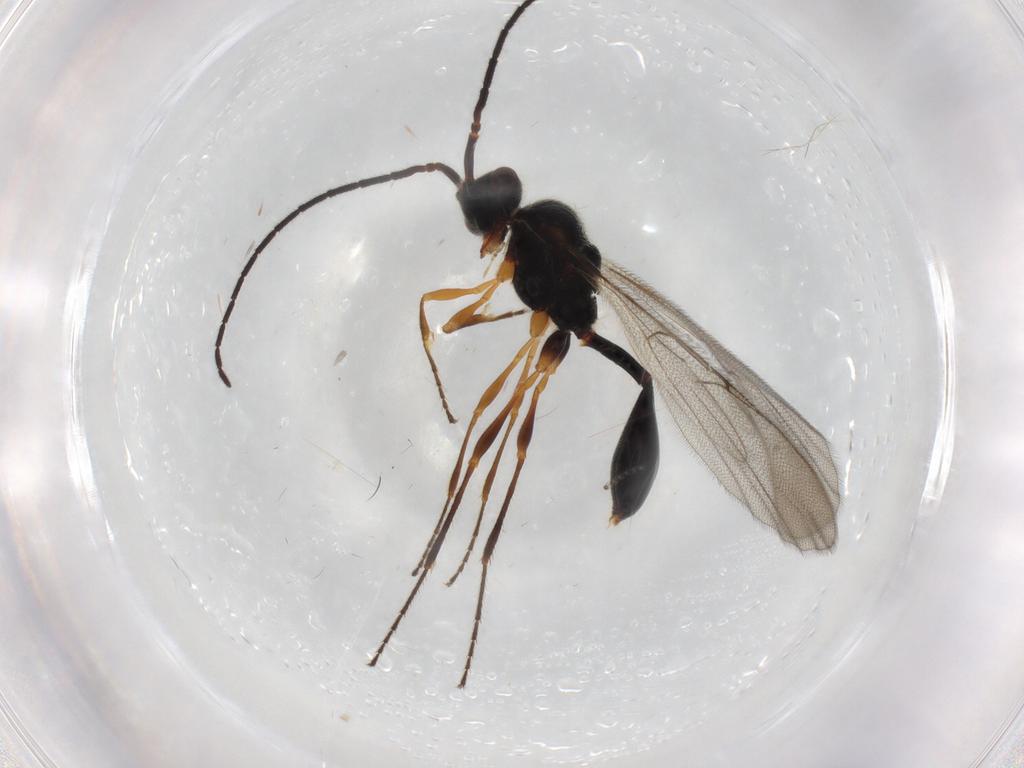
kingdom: Animalia
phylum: Arthropoda
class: Insecta
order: Hymenoptera
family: Diapriidae
